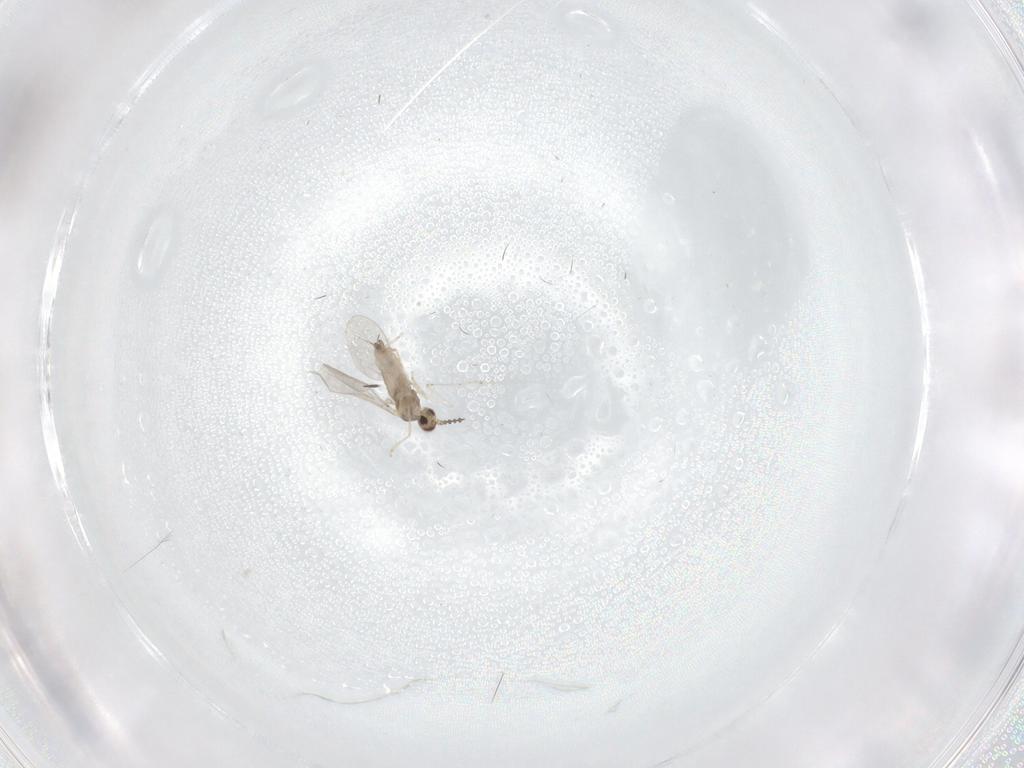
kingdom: Animalia
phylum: Arthropoda
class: Insecta
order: Diptera
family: Cecidomyiidae
